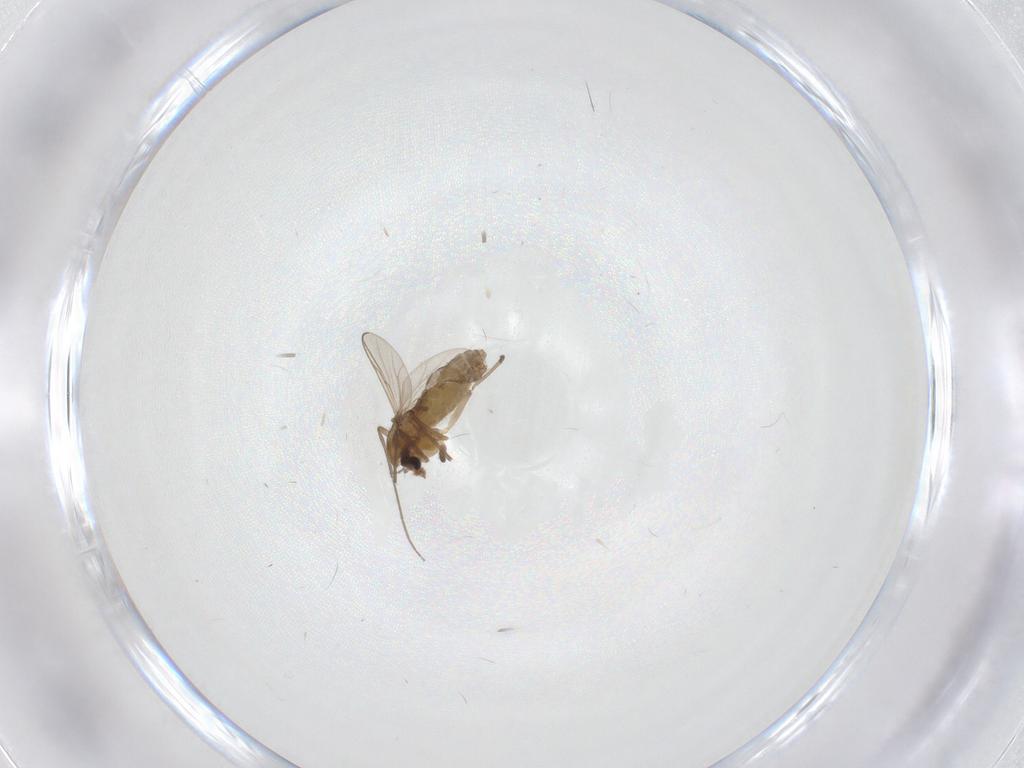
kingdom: Animalia
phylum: Arthropoda
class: Insecta
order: Diptera
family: Chironomidae
